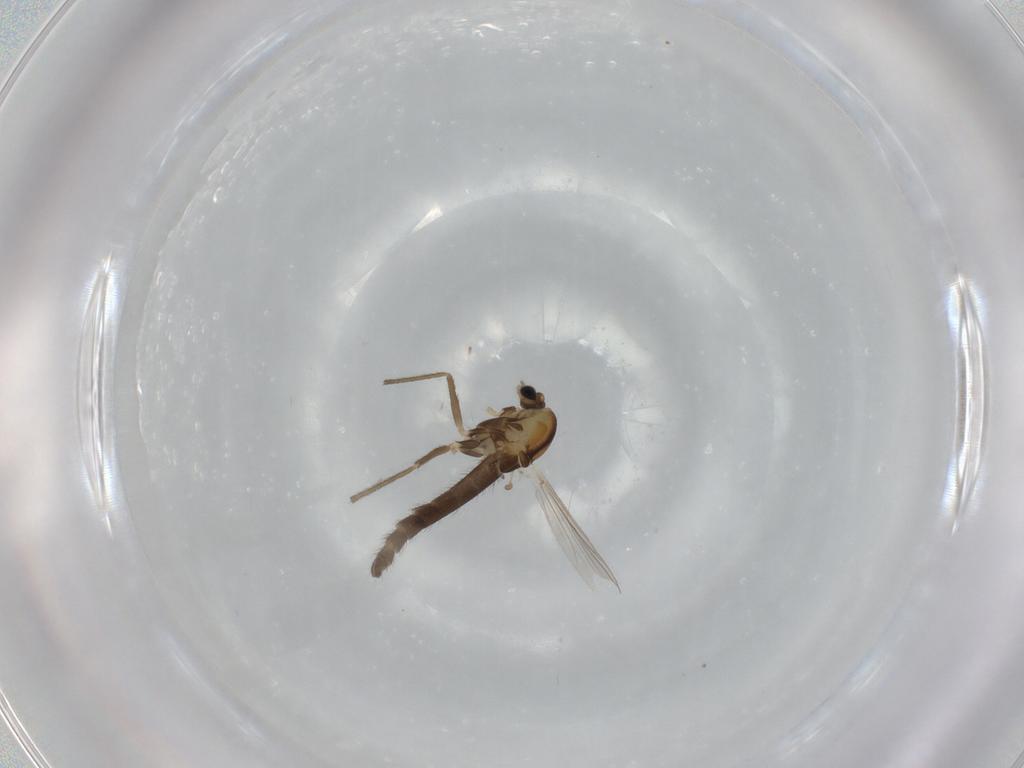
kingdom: Animalia
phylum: Arthropoda
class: Insecta
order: Diptera
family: Chironomidae
